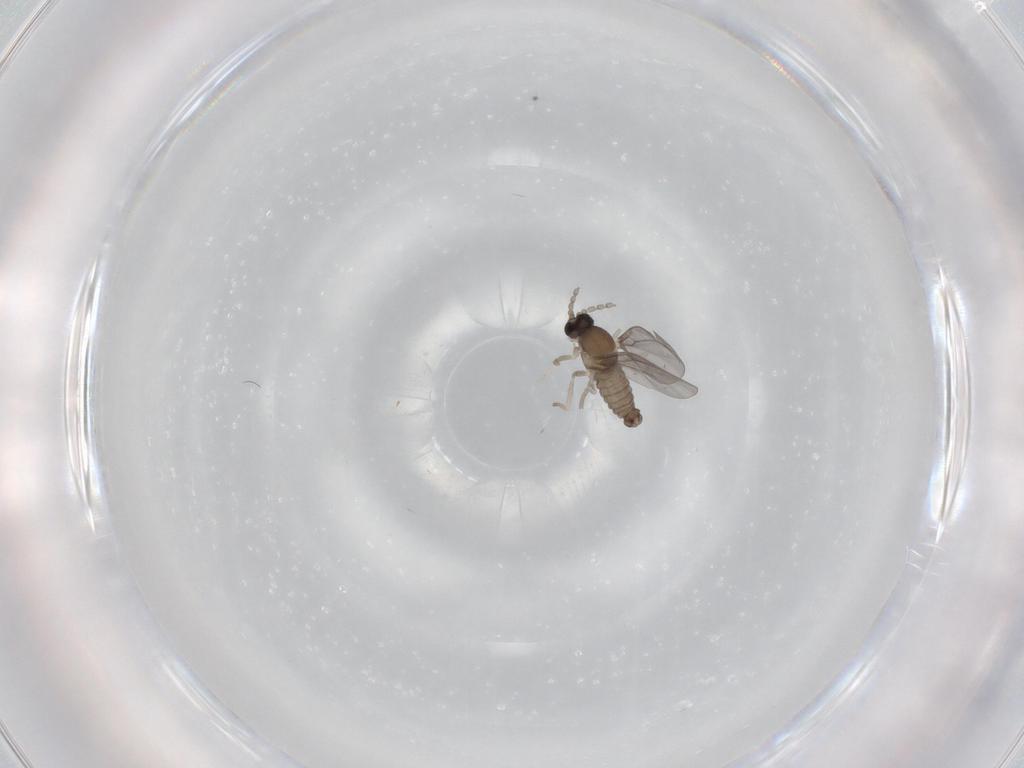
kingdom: Animalia
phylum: Arthropoda
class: Insecta
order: Diptera
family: Cecidomyiidae
